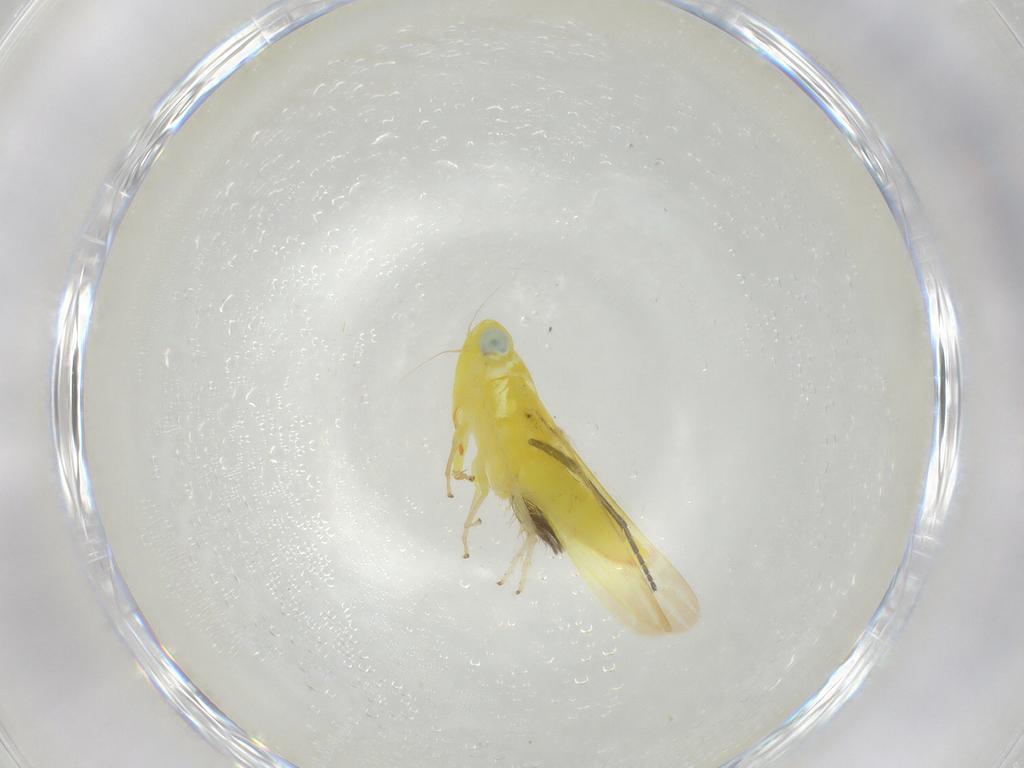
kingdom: Animalia
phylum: Arthropoda
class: Insecta
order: Hemiptera
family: Cicadellidae
